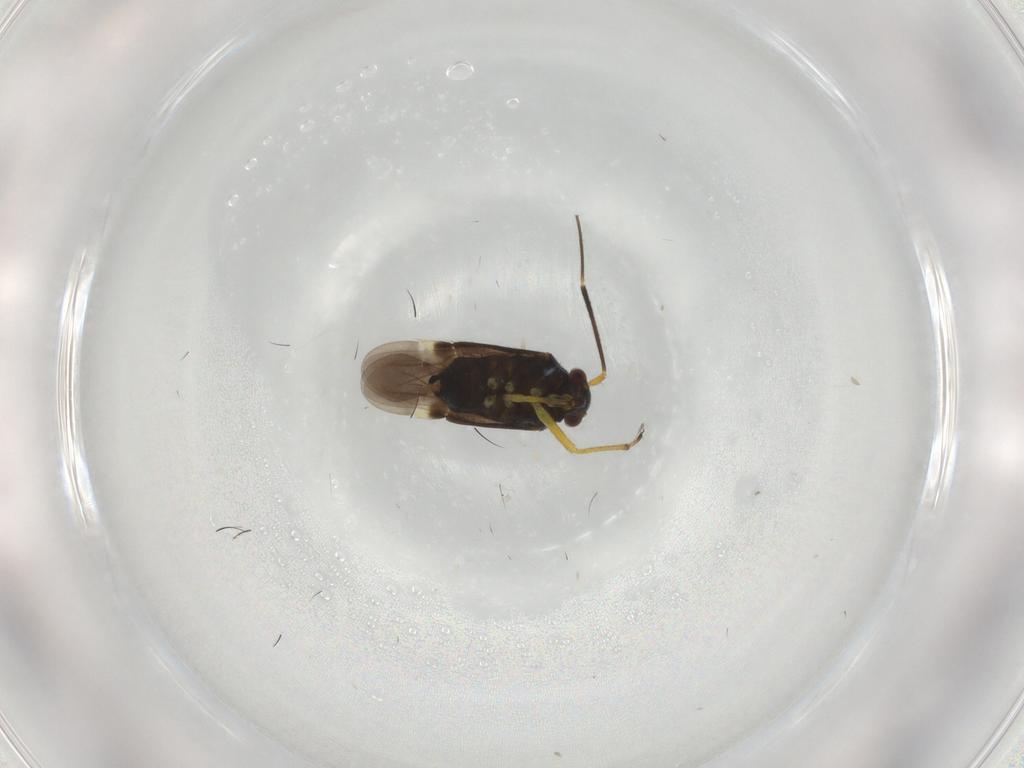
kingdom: Animalia
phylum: Arthropoda
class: Insecta
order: Hemiptera
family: Miridae
